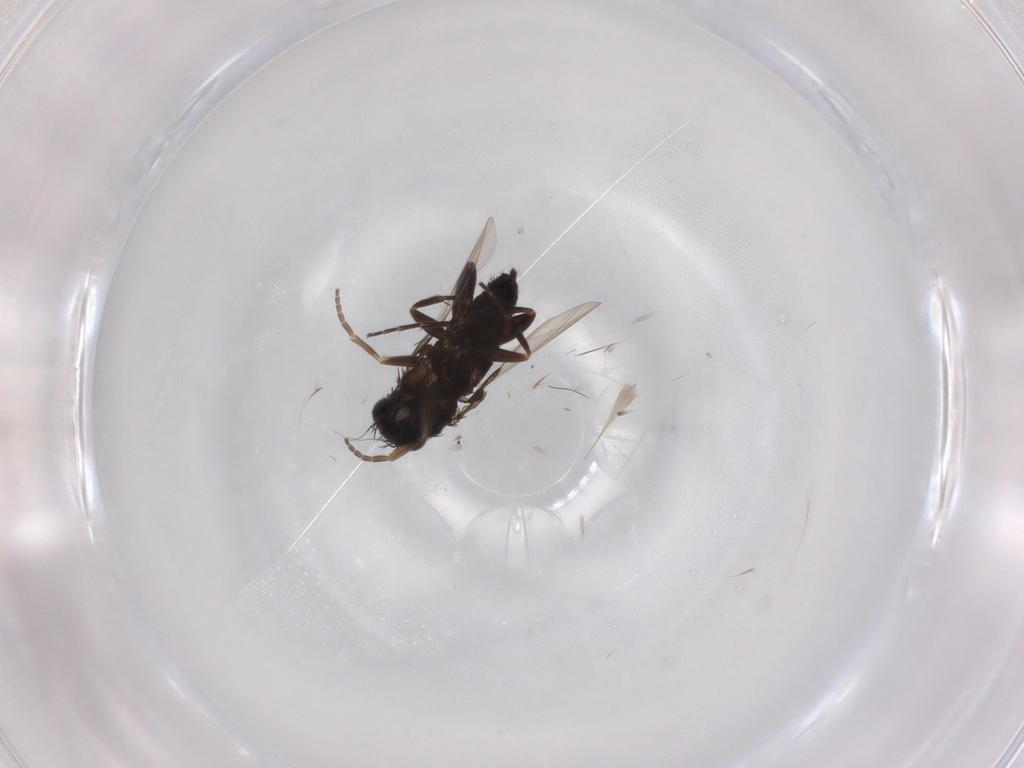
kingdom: Animalia
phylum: Arthropoda
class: Insecta
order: Diptera
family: Phoridae
